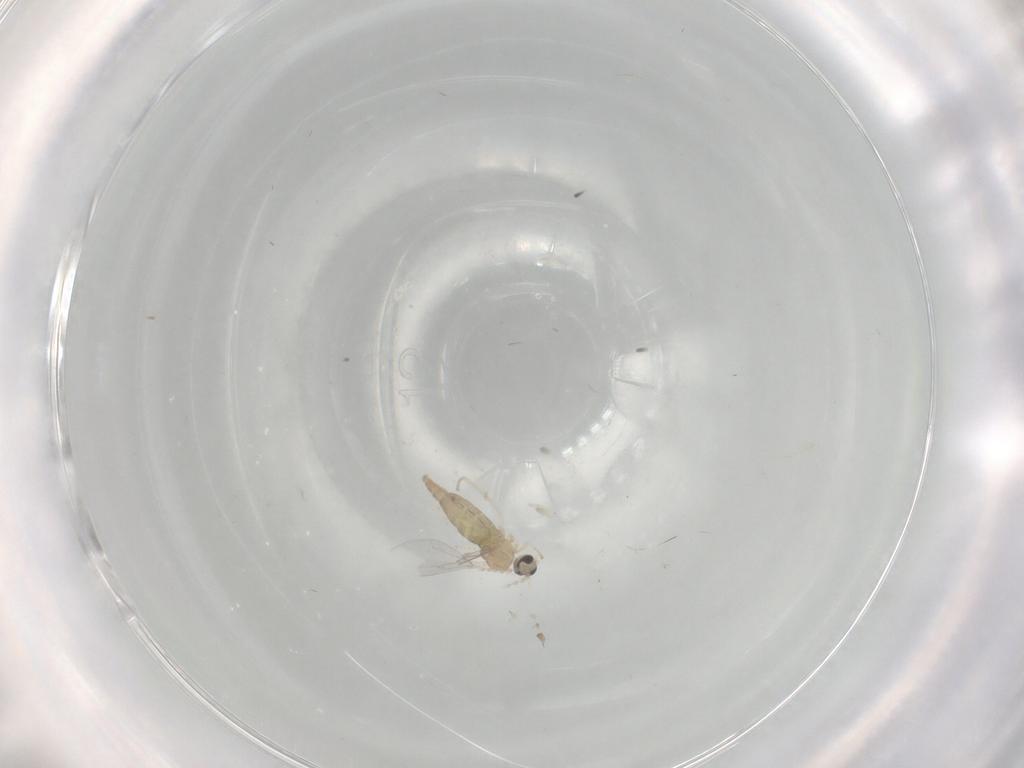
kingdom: Animalia
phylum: Arthropoda
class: Insecta
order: Diptera
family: Cecidomyiidae
